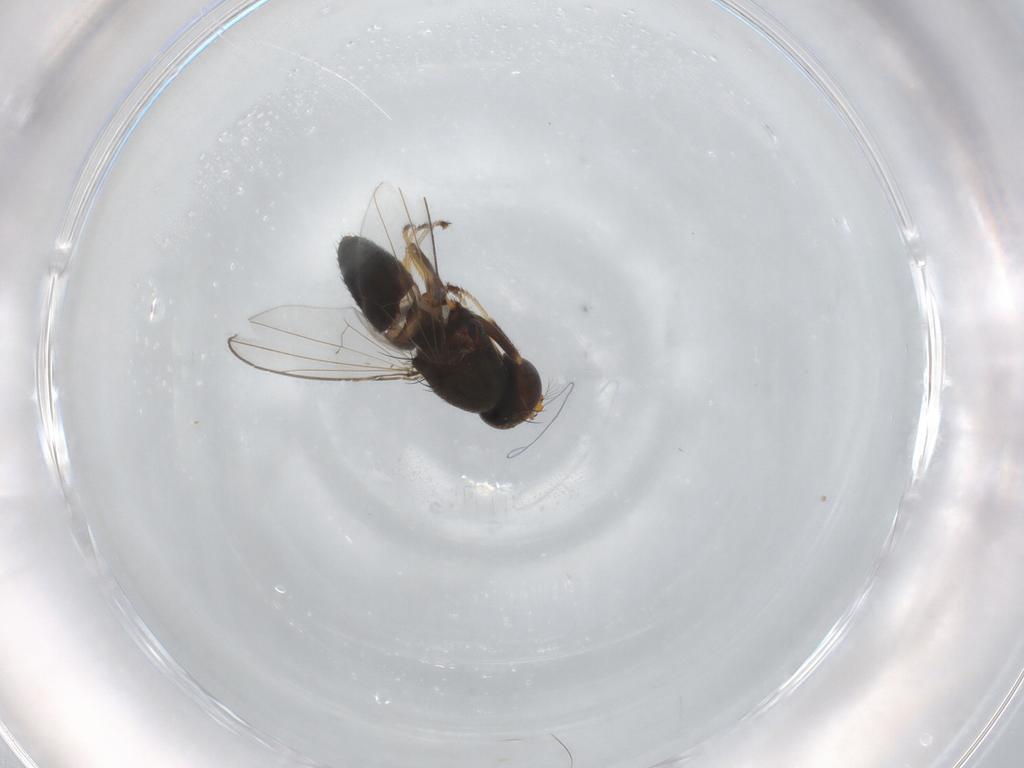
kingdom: Animalia
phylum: Arthropoda
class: Insecta
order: Diptera
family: Ephydridae
